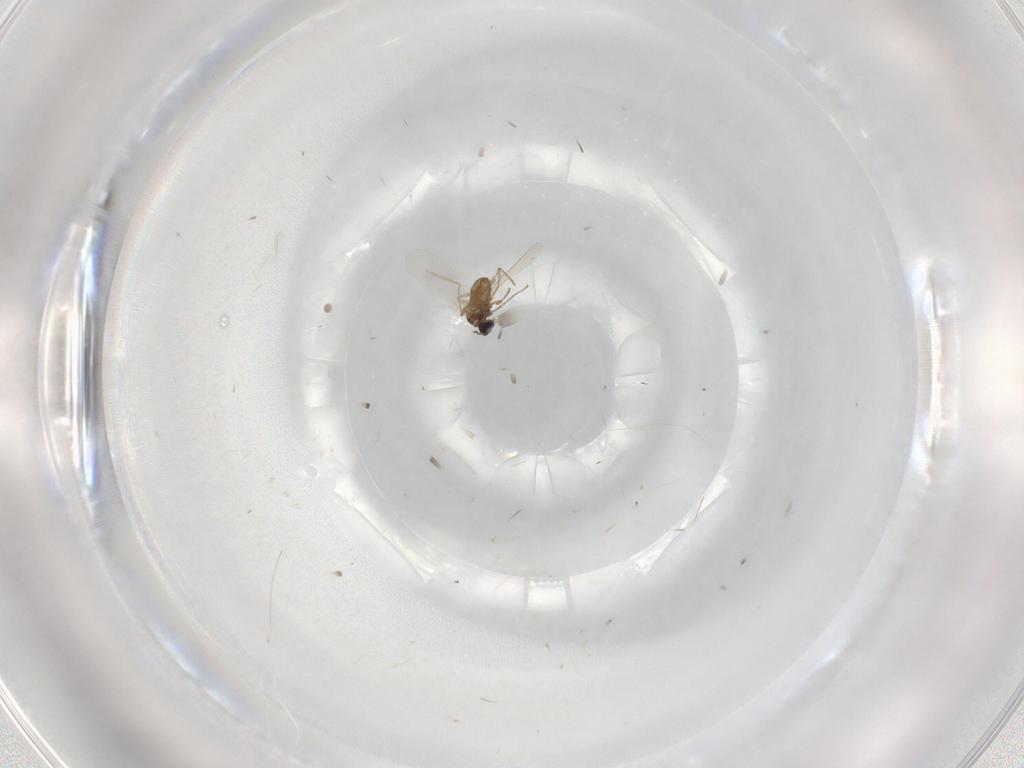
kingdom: Animalia
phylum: Arthropoda
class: Insecta
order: Diptera
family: Cecidomyiidae
